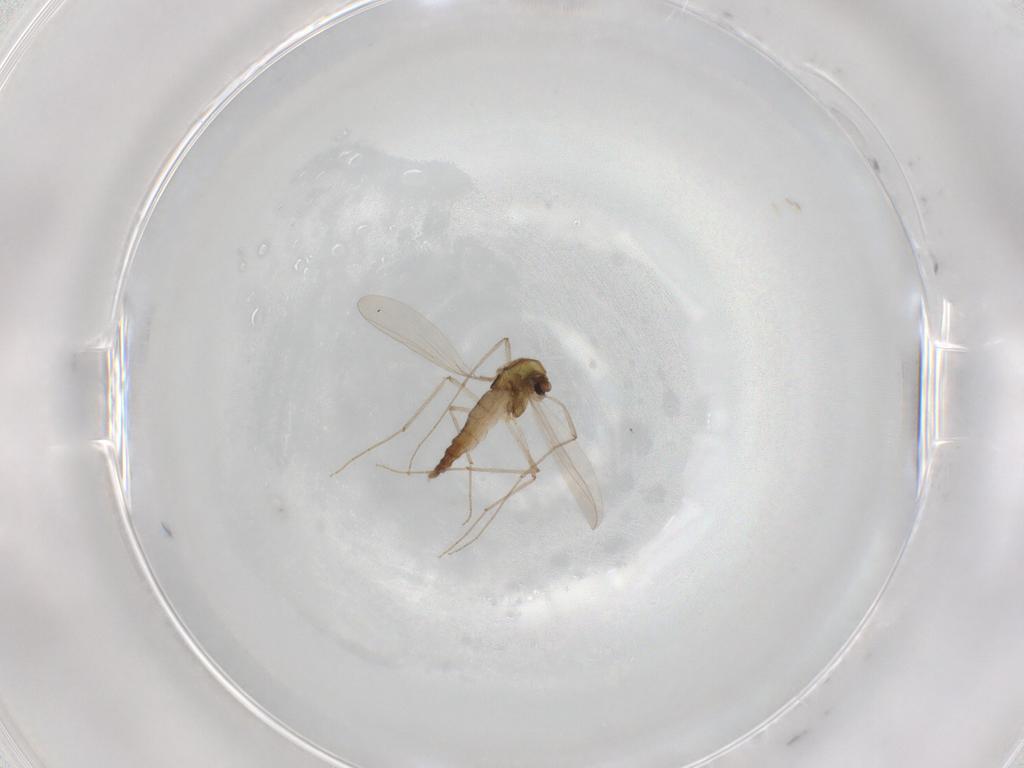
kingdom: Animalia
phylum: Arthropoda
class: Insecta
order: Diptera
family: Chironomidae
